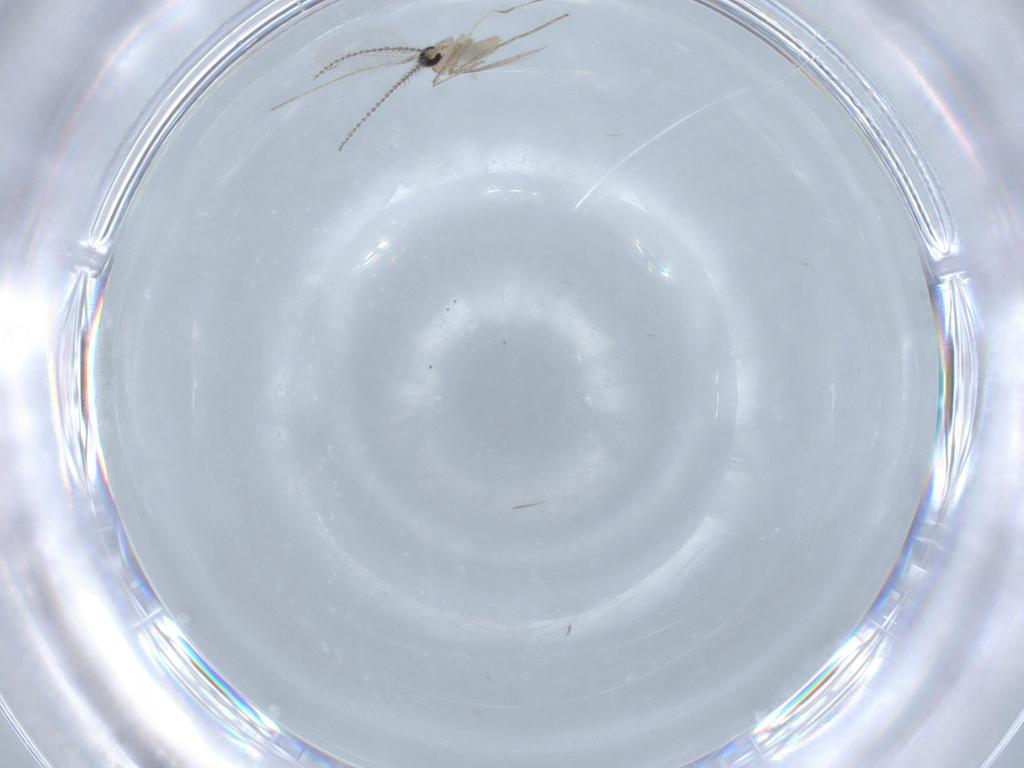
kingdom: Animalia
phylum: Arthropoda
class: Insecta
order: Diptera
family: Cecidomyiidae
